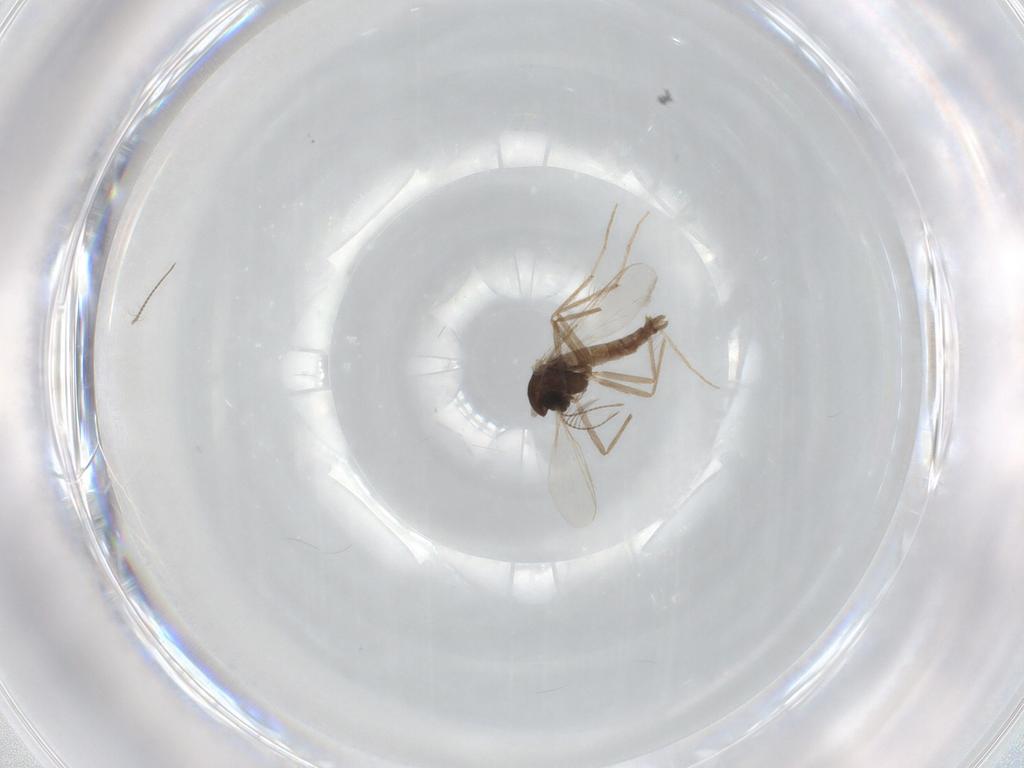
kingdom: Animalia
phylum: Arthropoda
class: Insecta
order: Diptera
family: Chironomidae
